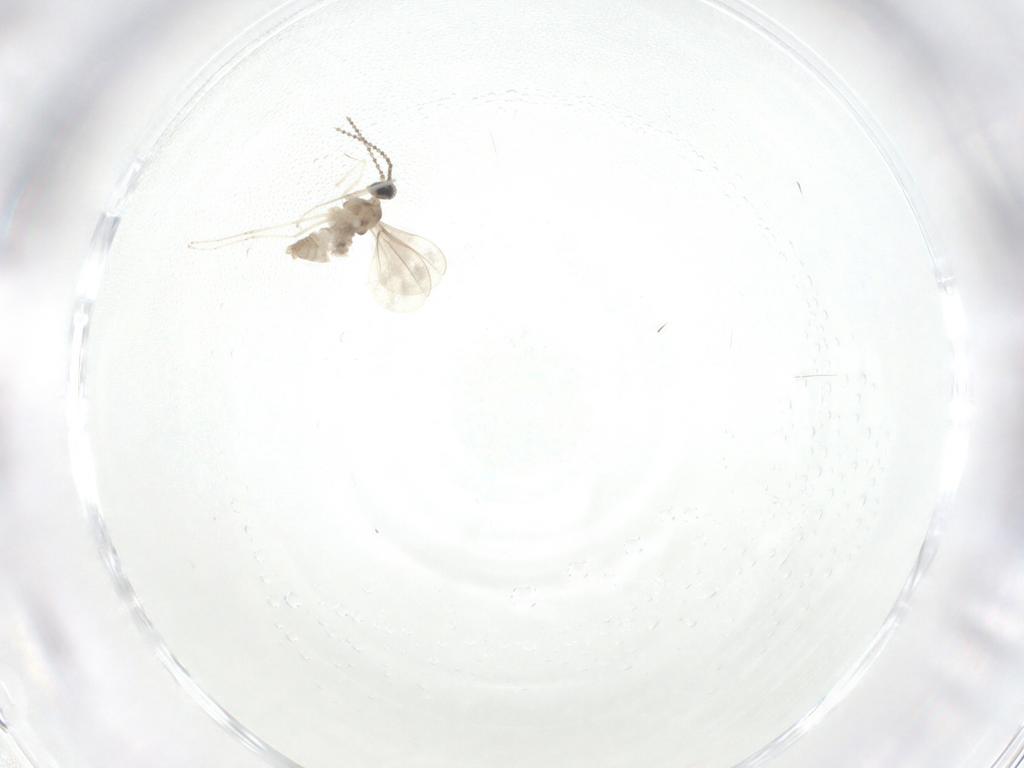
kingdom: Animalia
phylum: Arthropoda
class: Insecta
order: Diptera
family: Cecidomyiidae
